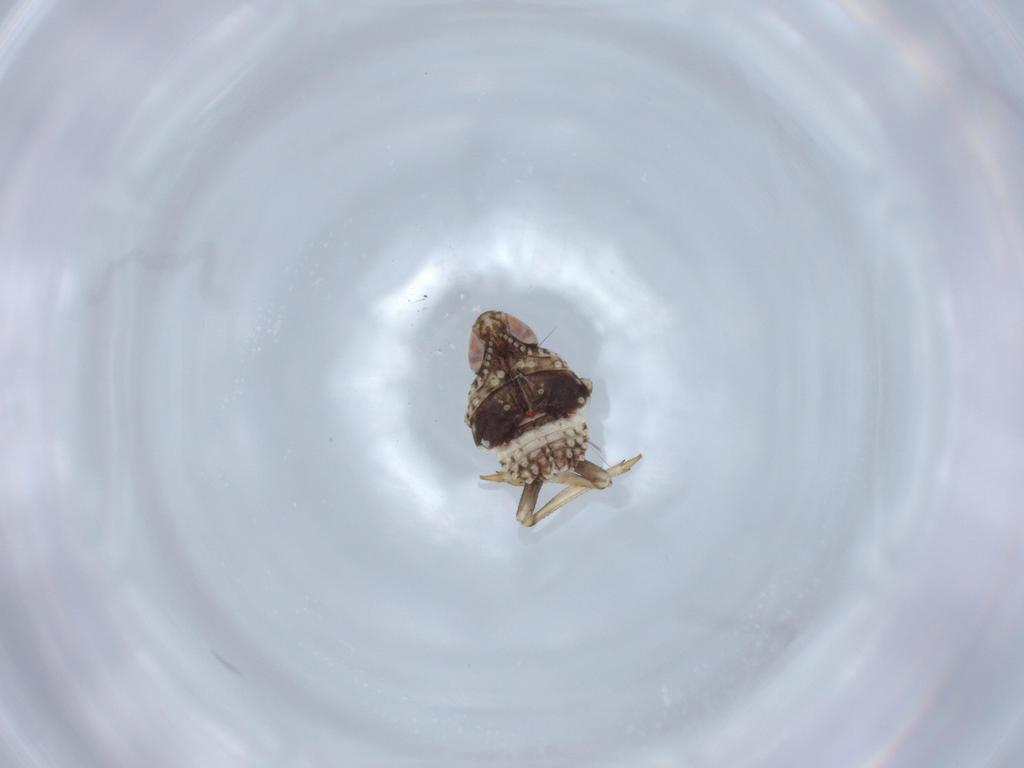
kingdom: Animalia
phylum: Arthropoda
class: Insecta
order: Hemiptera
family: Issidae
